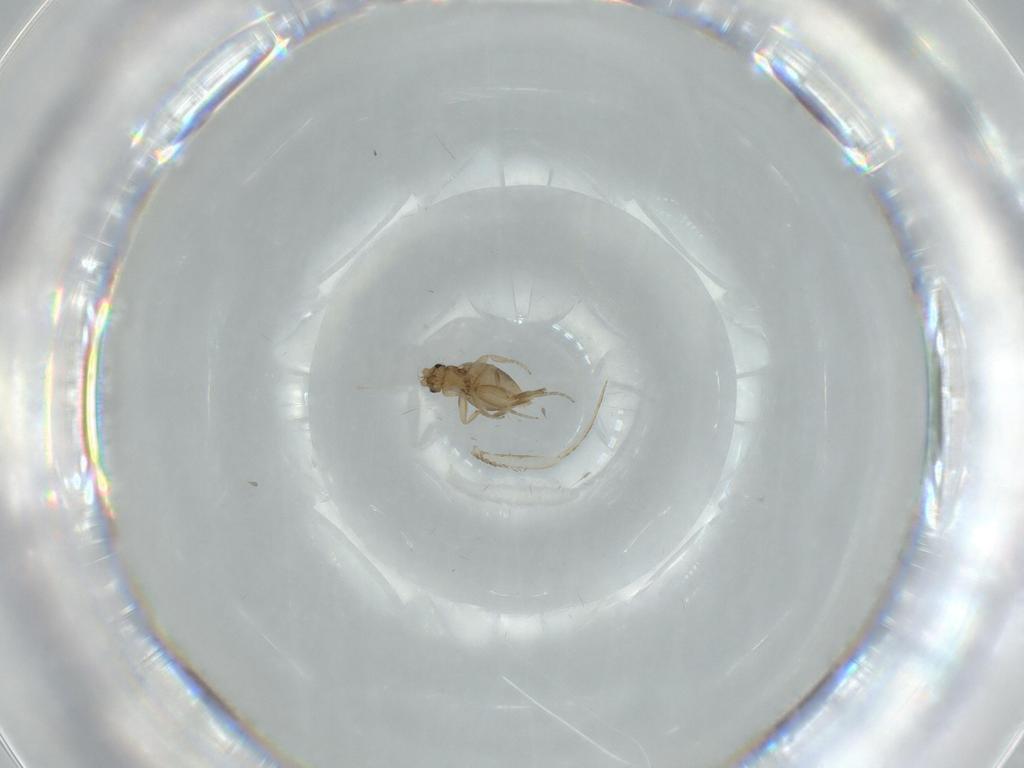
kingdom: Animalia
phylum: Arthropoda
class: Insecta
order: Diptera
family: Phoridae
